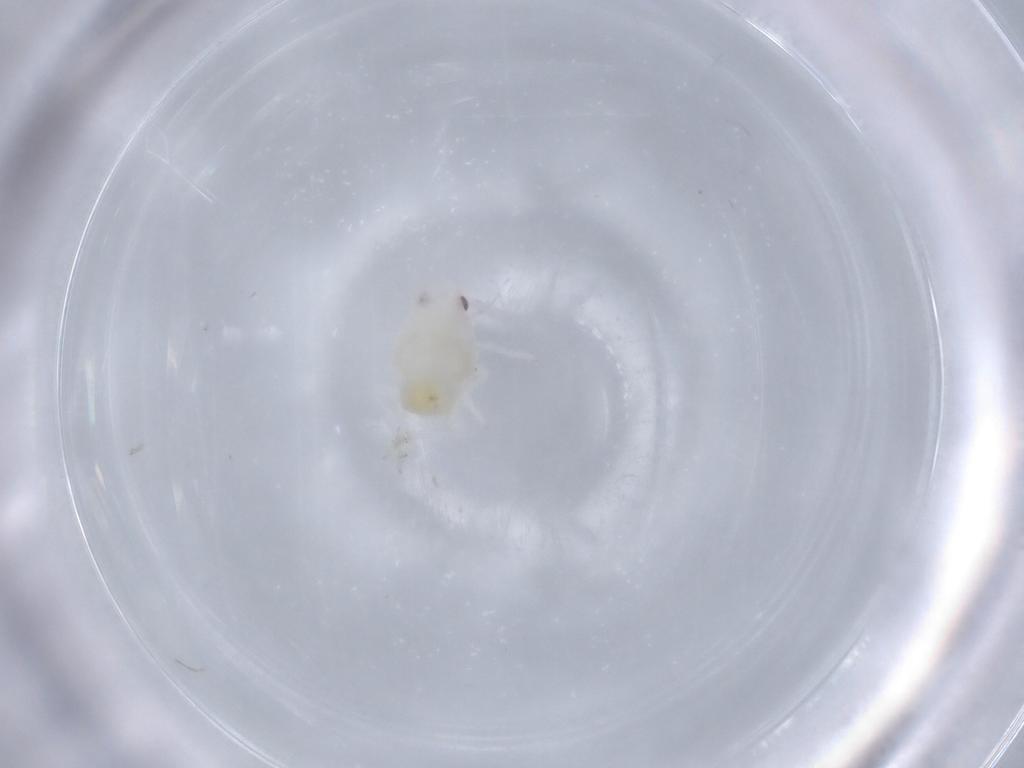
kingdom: Animalia
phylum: Arthropoda
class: Insecta
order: Hemiptera
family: Flatidae
